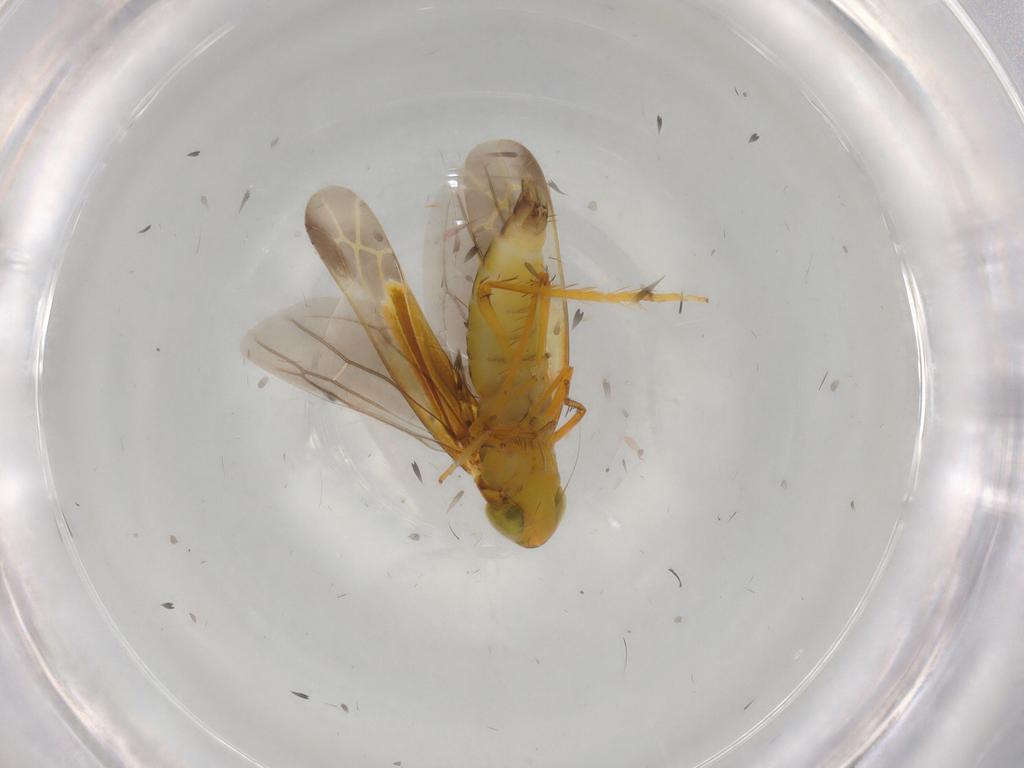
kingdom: Animalia
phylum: Arthropoda
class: Insecta
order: Hemiptera
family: Cicadellidae
